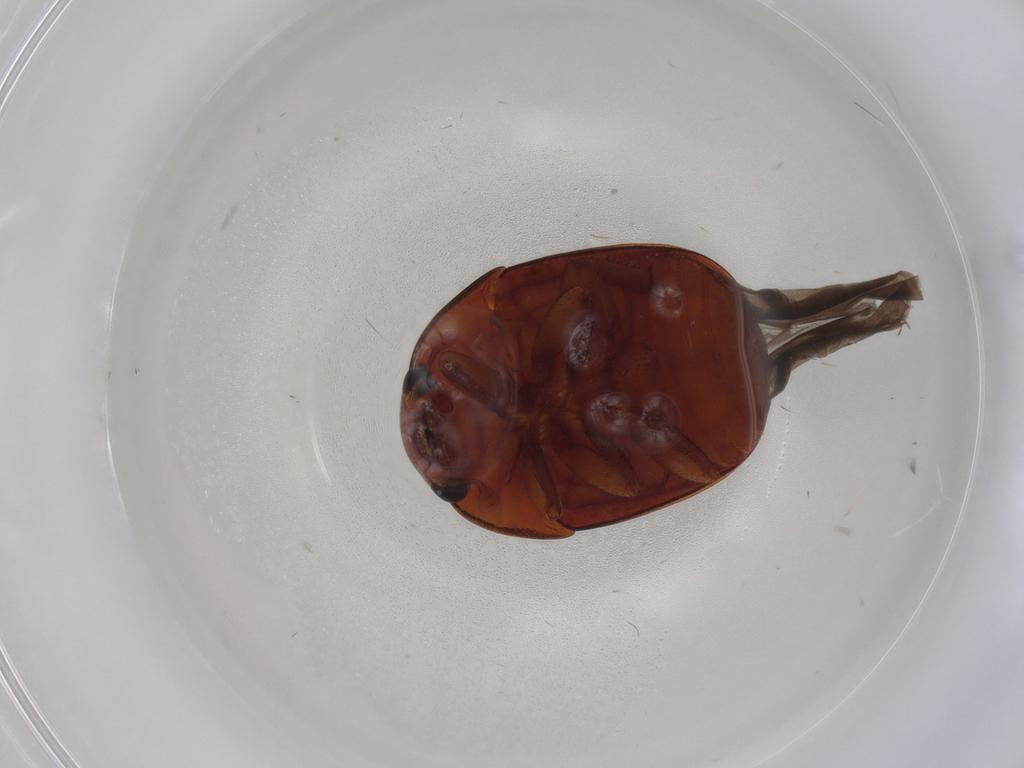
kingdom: Animalia
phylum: Arthropoda
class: Insecta
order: Coleoptera
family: Nitidulidae
